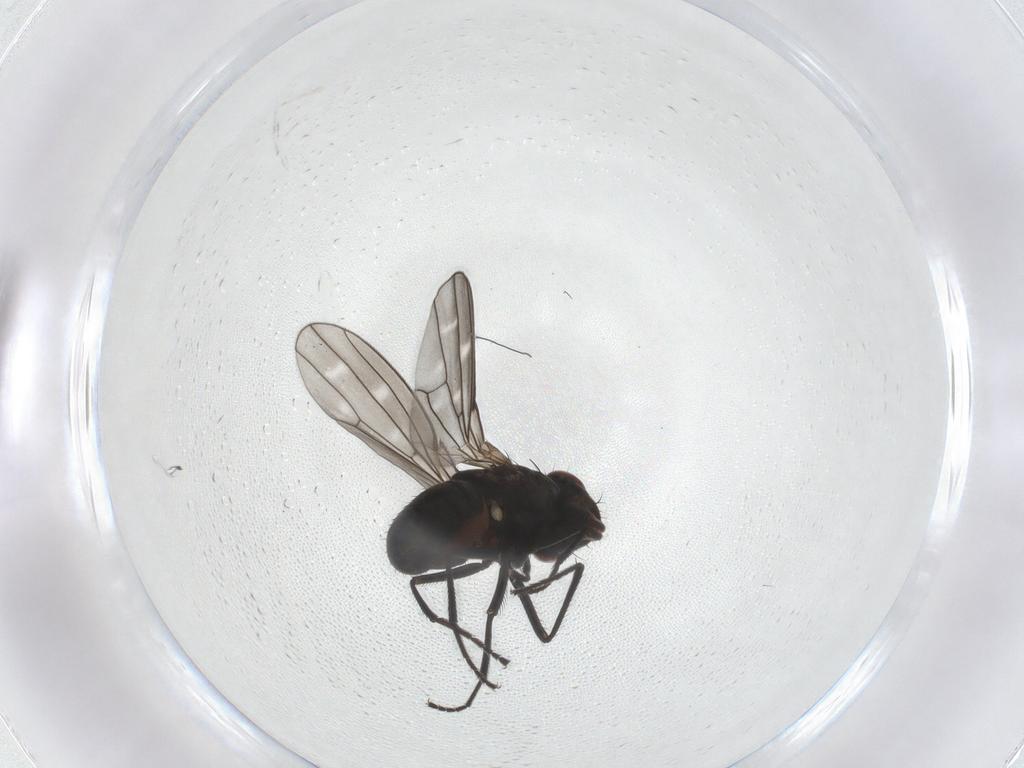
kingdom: Animalia
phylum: Arthropoda
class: Insecta
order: Diptera
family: Ephydridae
